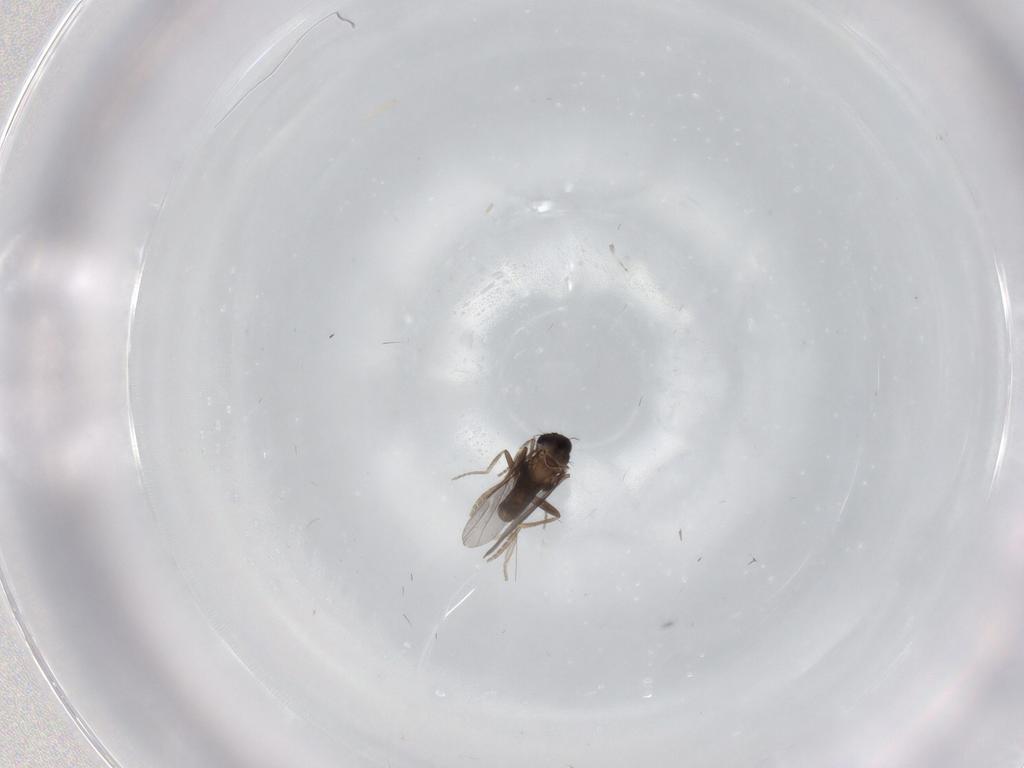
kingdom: Animalia
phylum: Arthropoda
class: Insecta
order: Diptera
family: Psychodidae
